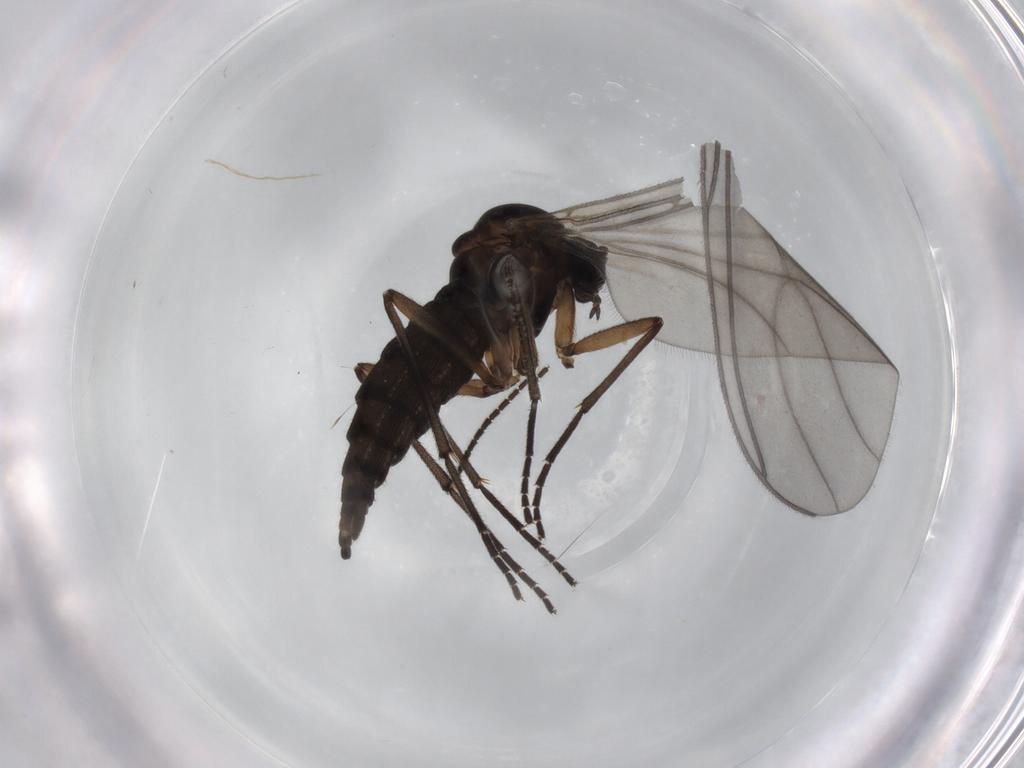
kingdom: Animalia
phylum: Arthropoda
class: Insecta
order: Diptera
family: Sciaridae
